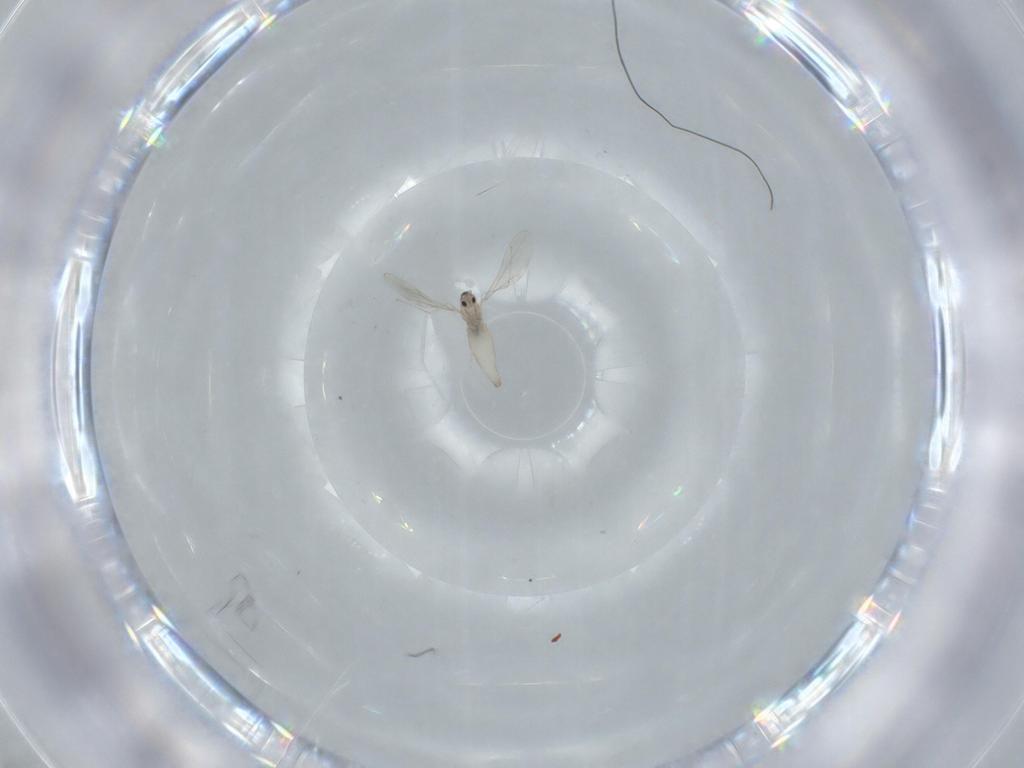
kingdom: Animalia
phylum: Arthropoda
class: Insecta
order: Diptera
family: Cecidomyiidae
